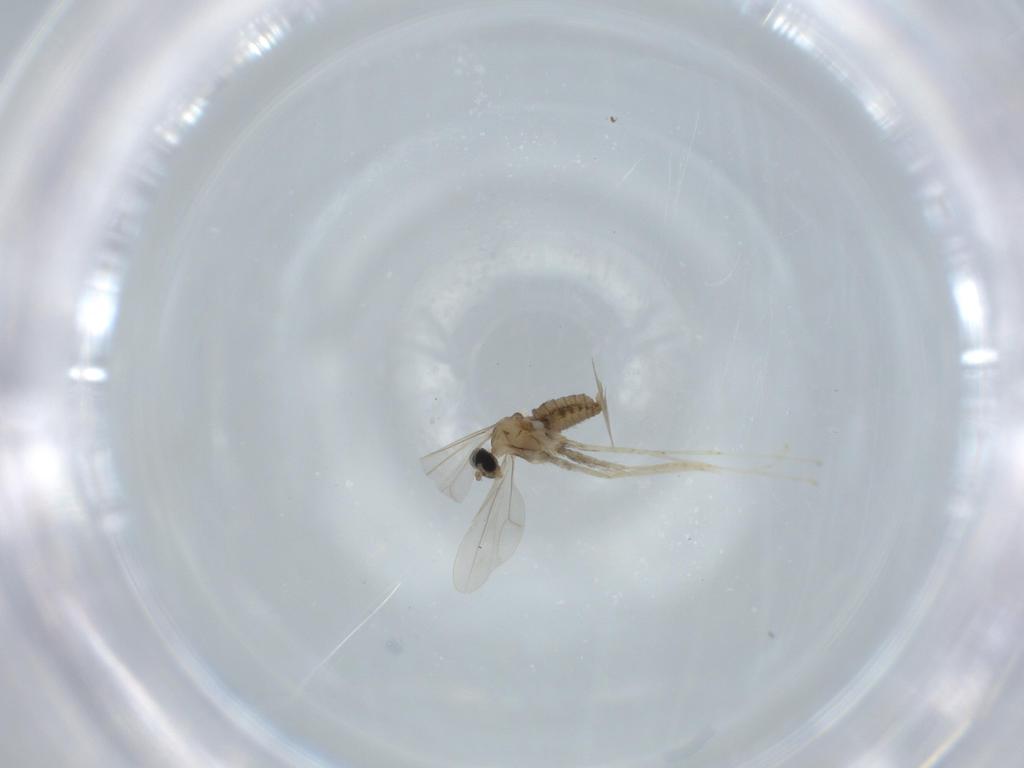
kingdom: Animalia
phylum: Arthropoda
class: Insecta
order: Diptera
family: Cecidomyiidae
